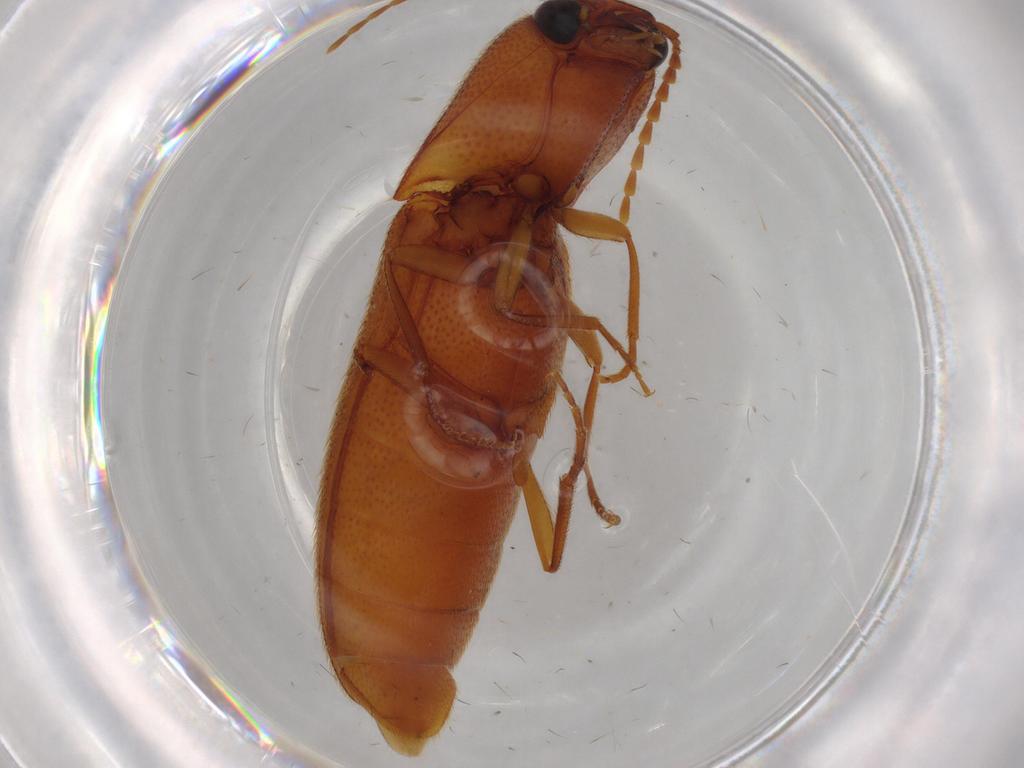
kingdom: Animalia
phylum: Arthropoda
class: Insecta
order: Coleoptera
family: Elateridae
